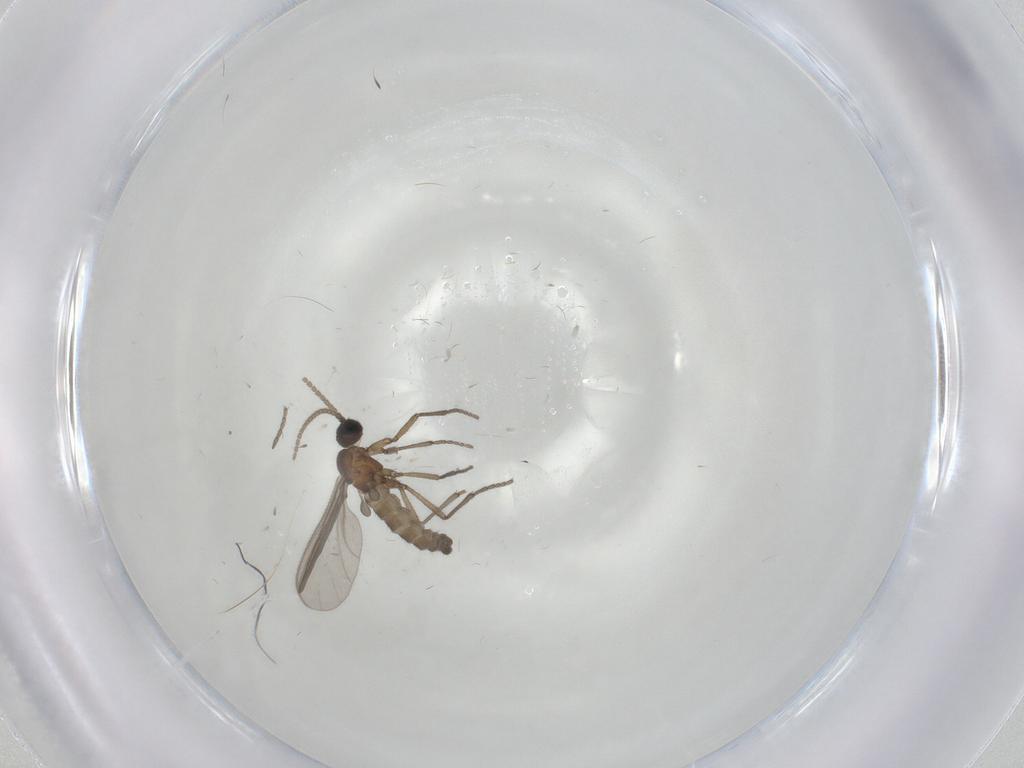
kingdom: Animalia
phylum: Arthropoda
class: Insecta
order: Diptera
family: Sciaridae
